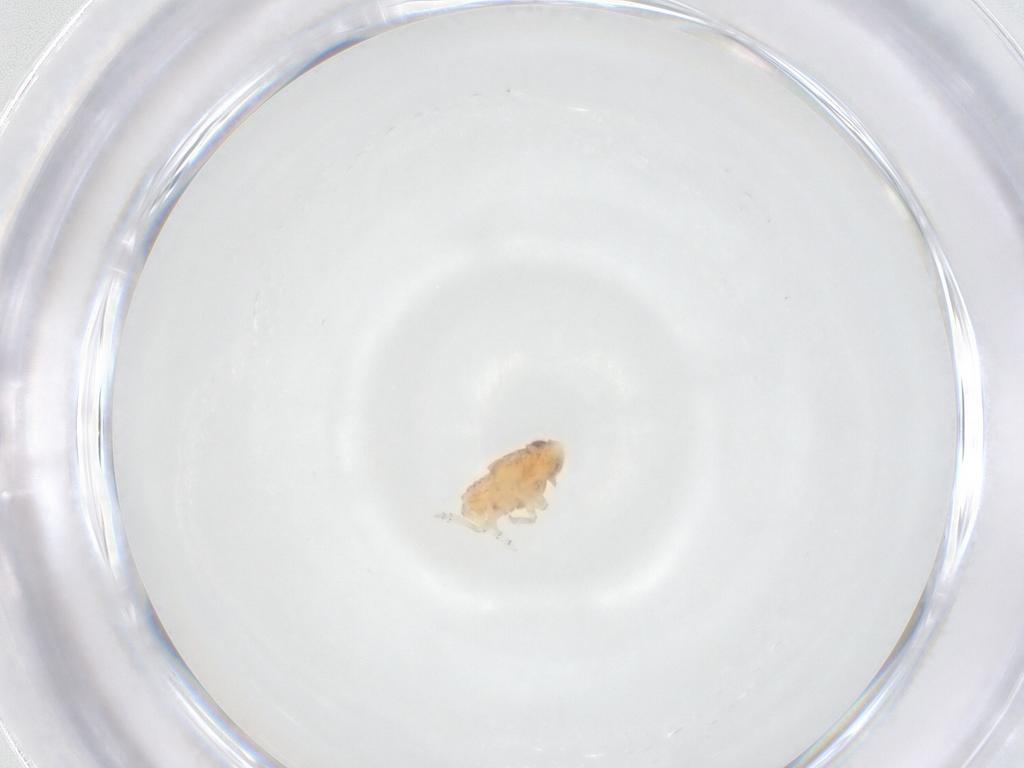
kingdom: Animalia
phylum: Arthropoda
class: Insecta
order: Hemiptera
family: Issidae
